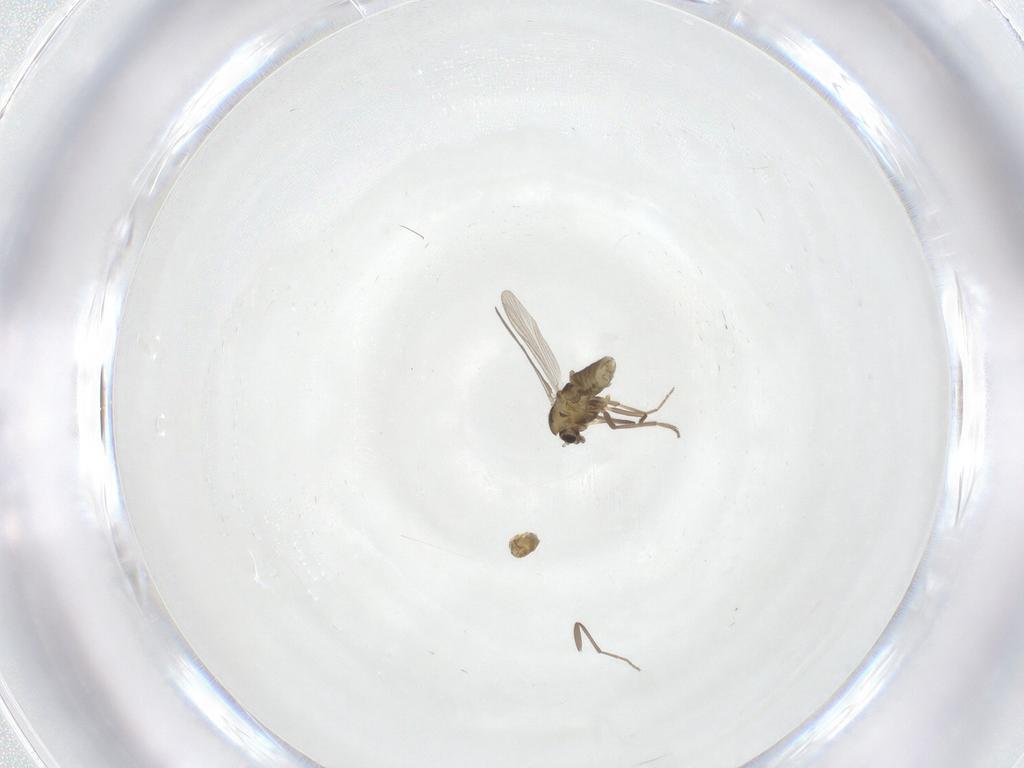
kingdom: Animalia
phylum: Arthropoda
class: Insecta
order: Diptera
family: Chironomidae
